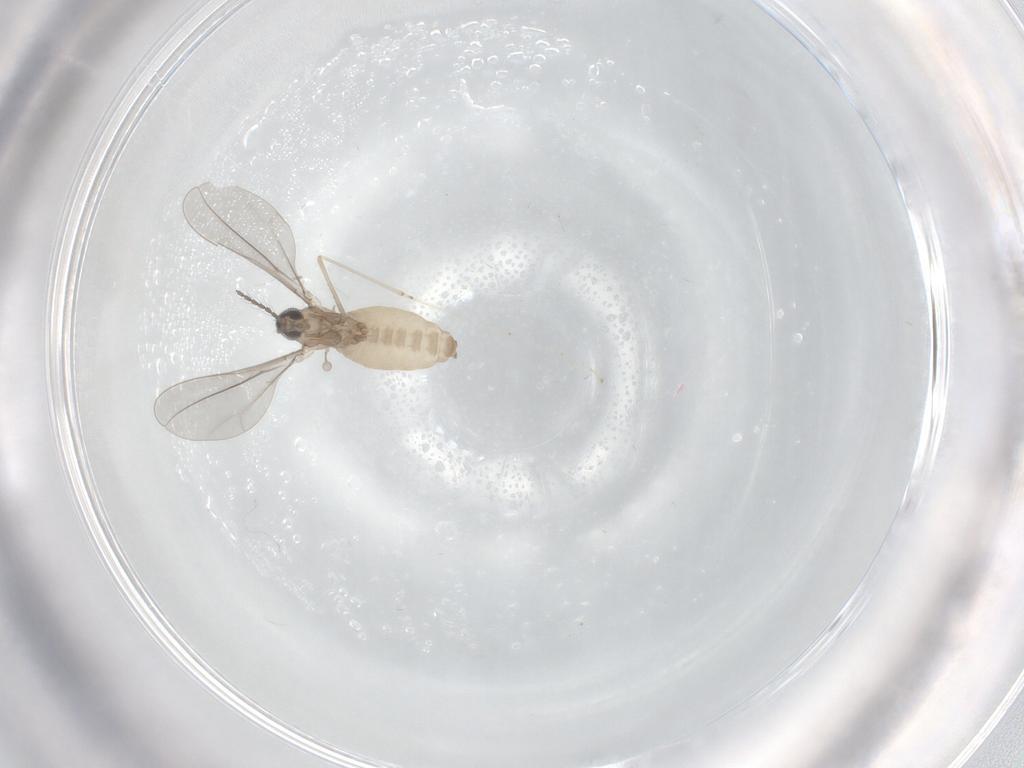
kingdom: Animalia
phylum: Arthropoda
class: Insecta
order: Diptera
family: Cecidomyiidae
